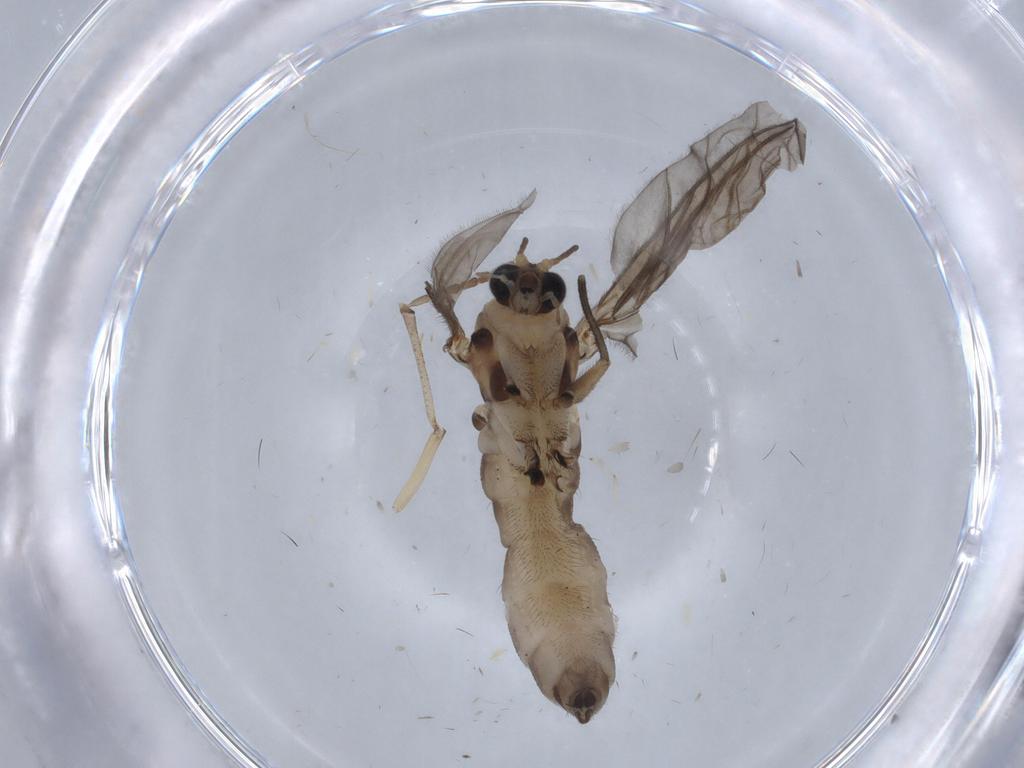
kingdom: Animalia
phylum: Arthropoda
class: Insecta
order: Diptera
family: Psychodidae
